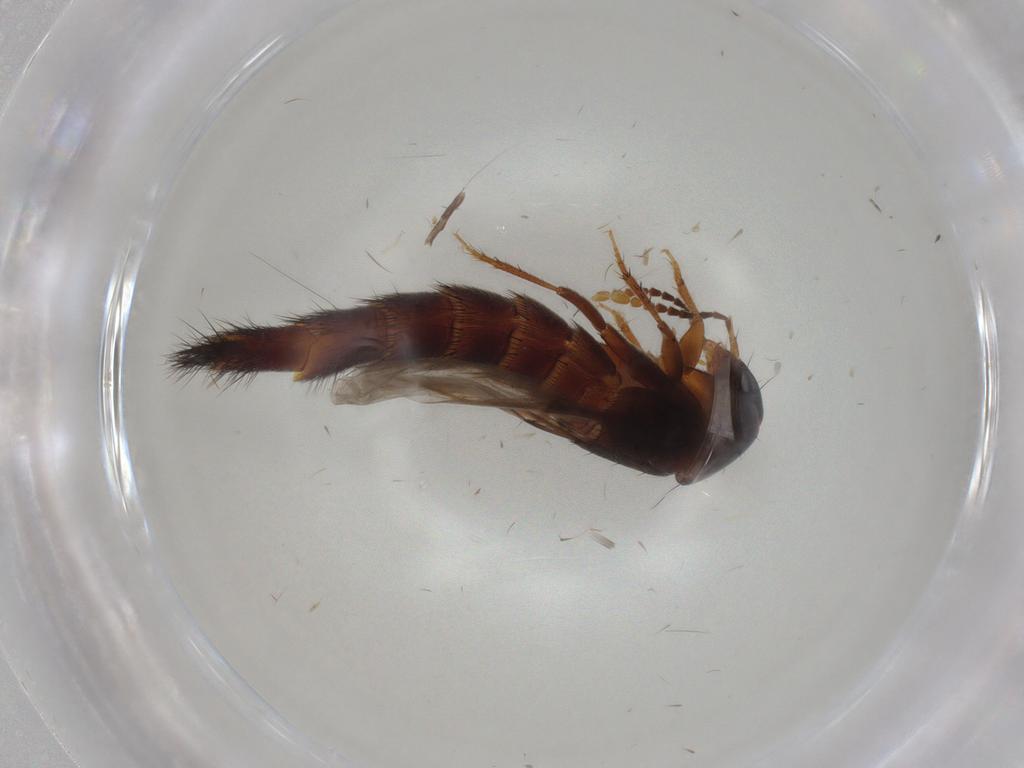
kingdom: Animalia
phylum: Arthropoda
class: Insecta
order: Coleoptera
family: Staphylinidae
